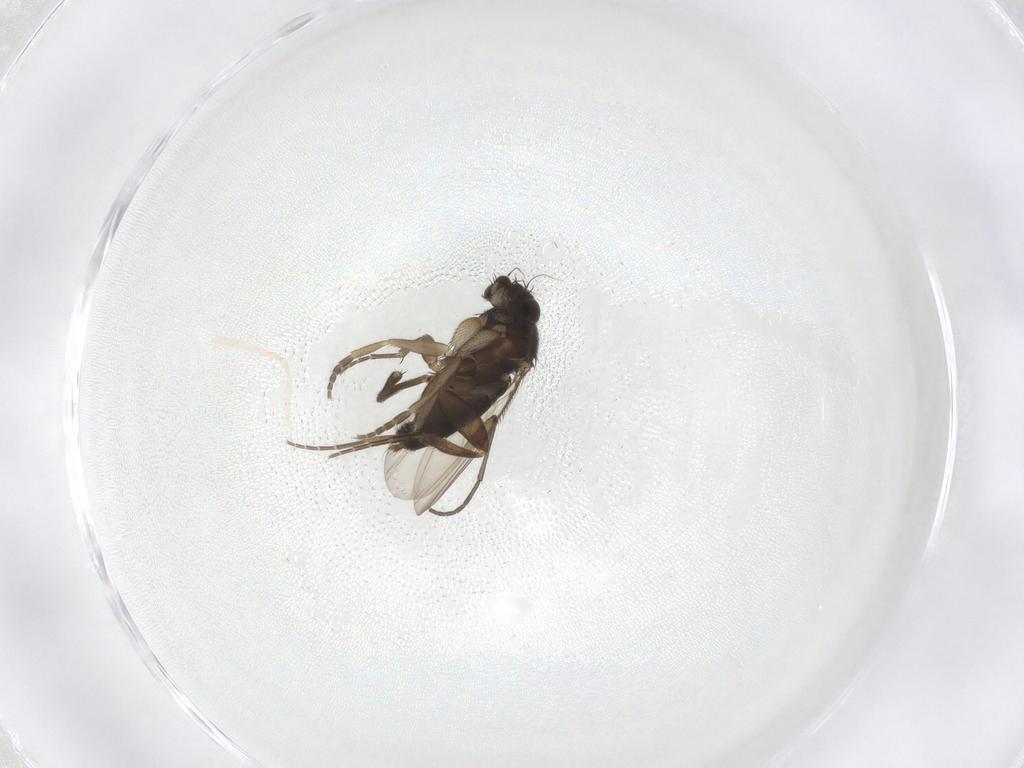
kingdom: Animalia
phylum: Arthropoda
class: Insecta
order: Diptera
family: Phoridae
